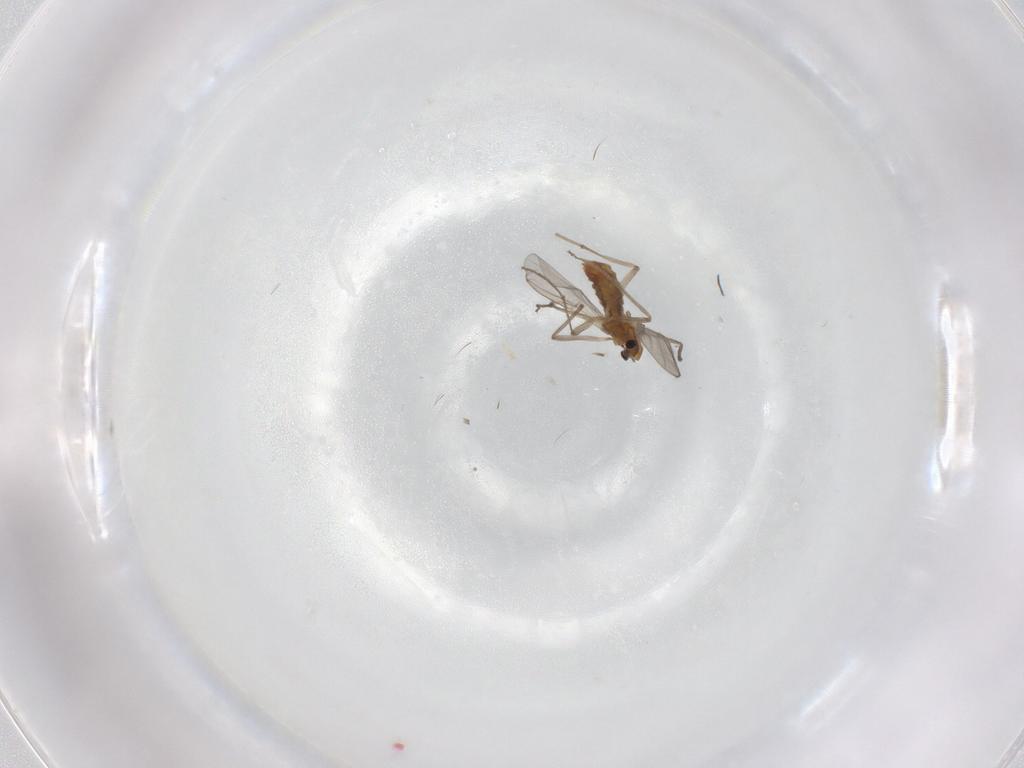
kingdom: Animalia
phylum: Arthropoda
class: Insecta
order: Diptera
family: Chironomidae
